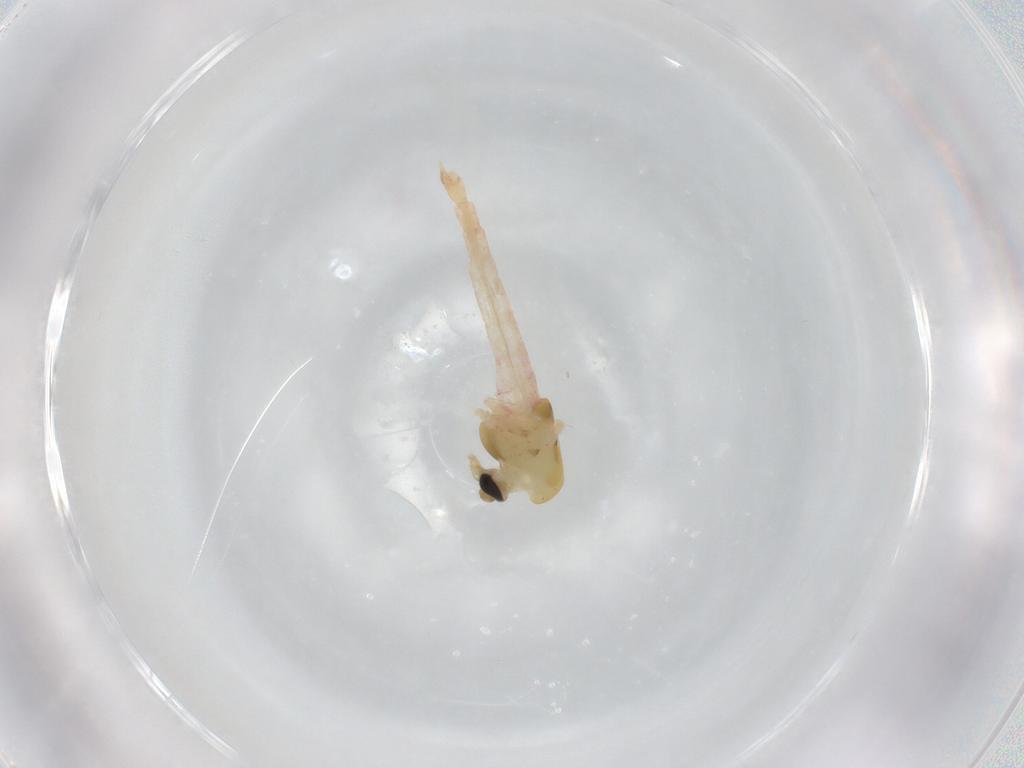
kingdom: Animalia
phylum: Arthropoda
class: Insecta
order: Diptera
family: Chironomidae
